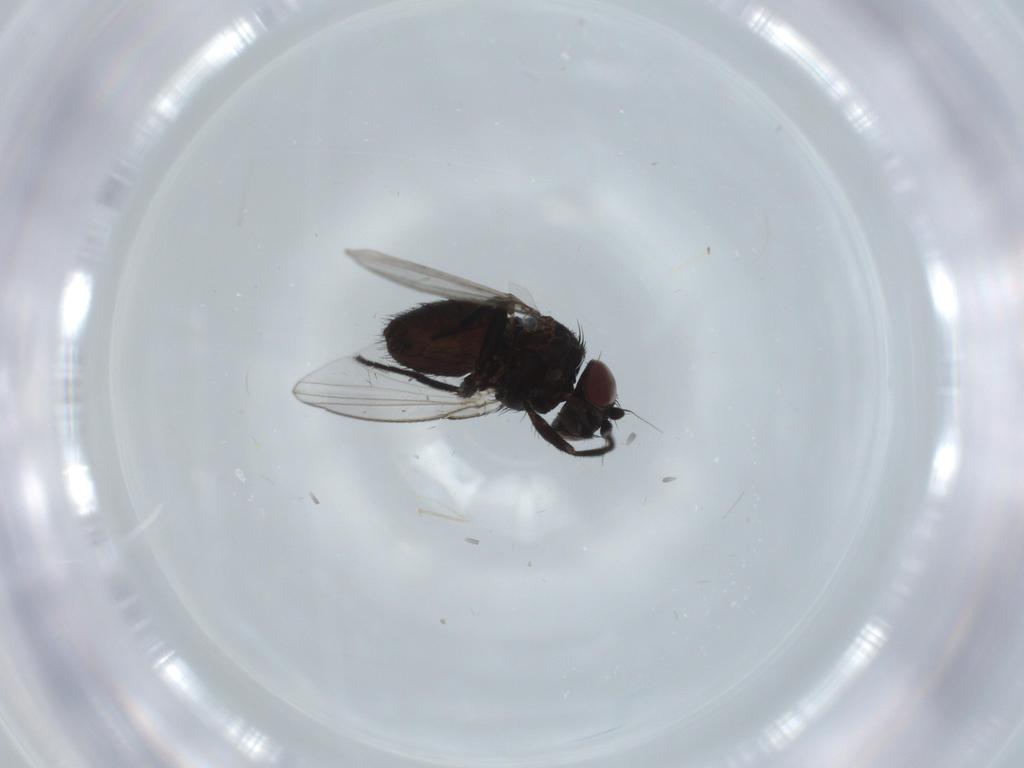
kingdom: Animalia
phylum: Arthropoda
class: Insecta
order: Diptera
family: Milichiidae
